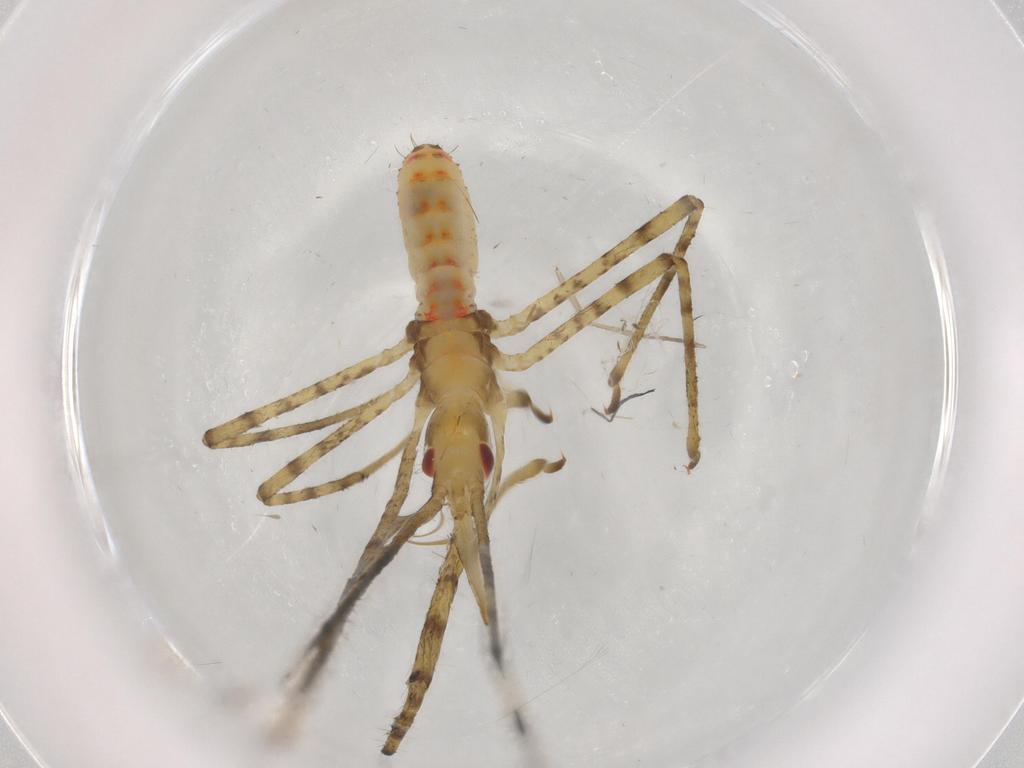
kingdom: Animalia
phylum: Arthropoda
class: Insecta
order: Hemiptera
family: Reduviidae
